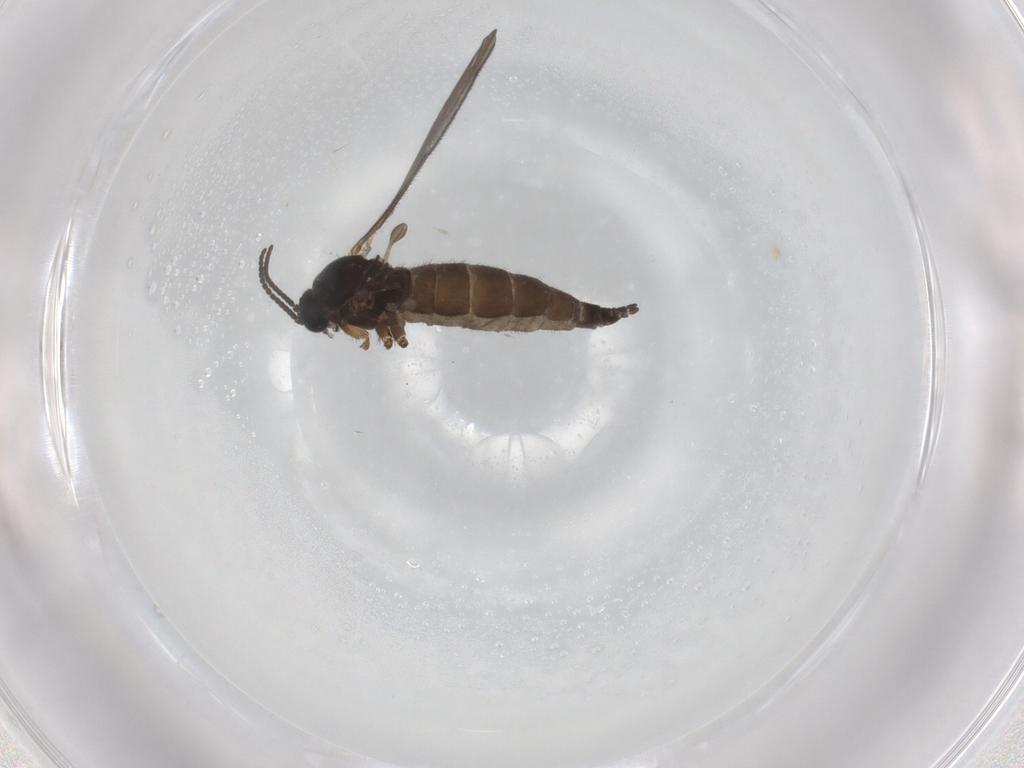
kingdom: Animalia
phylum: Arthropoda
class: Insecta
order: Diptera
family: Sciaridae
